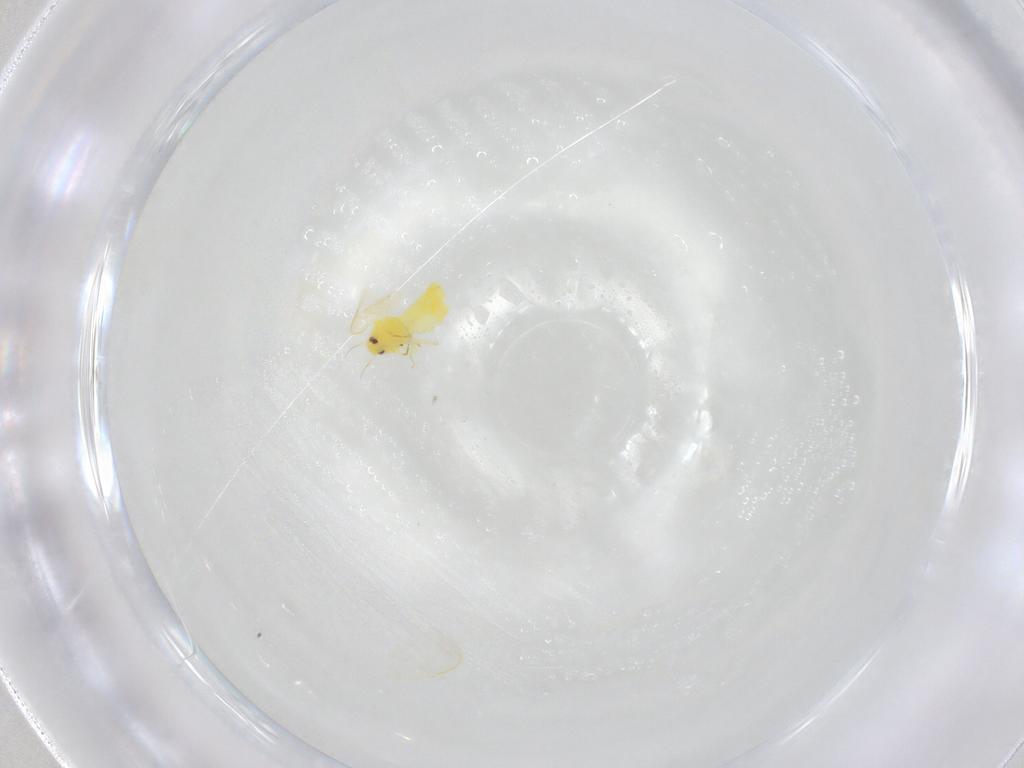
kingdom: Animalia
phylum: Arthropoda
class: Insecta
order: Hemiptera
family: Aleyrodidae
